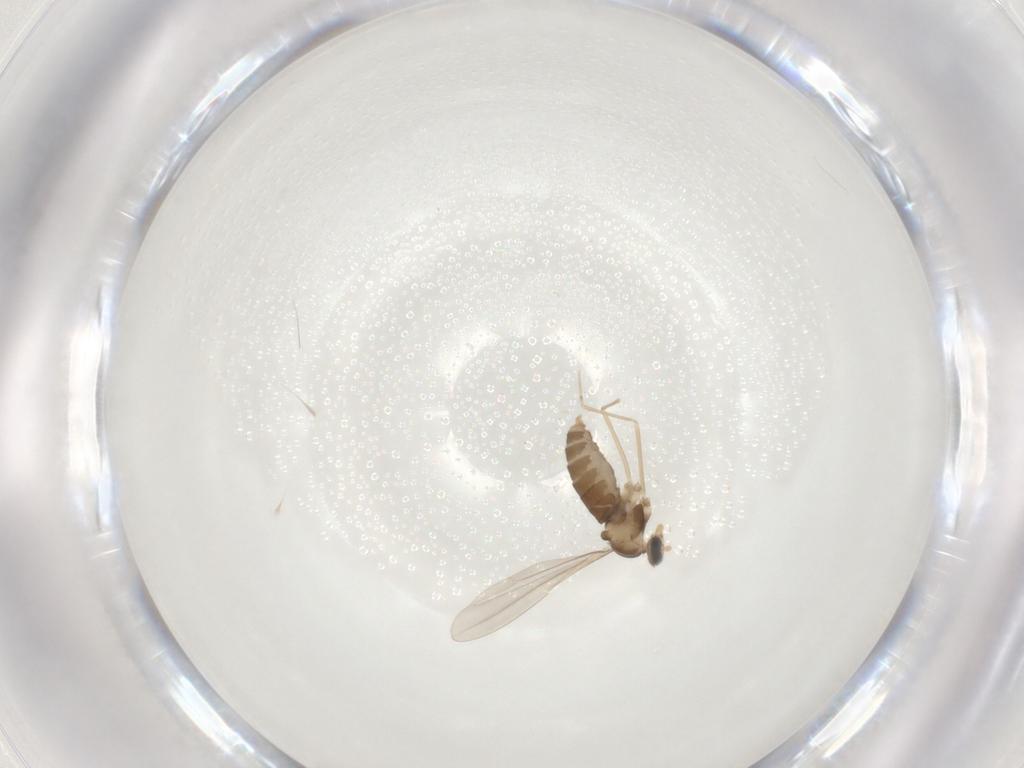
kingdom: Animalia
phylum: Arthropoda
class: Insecta
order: Diptera
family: Cecidomyiidae
